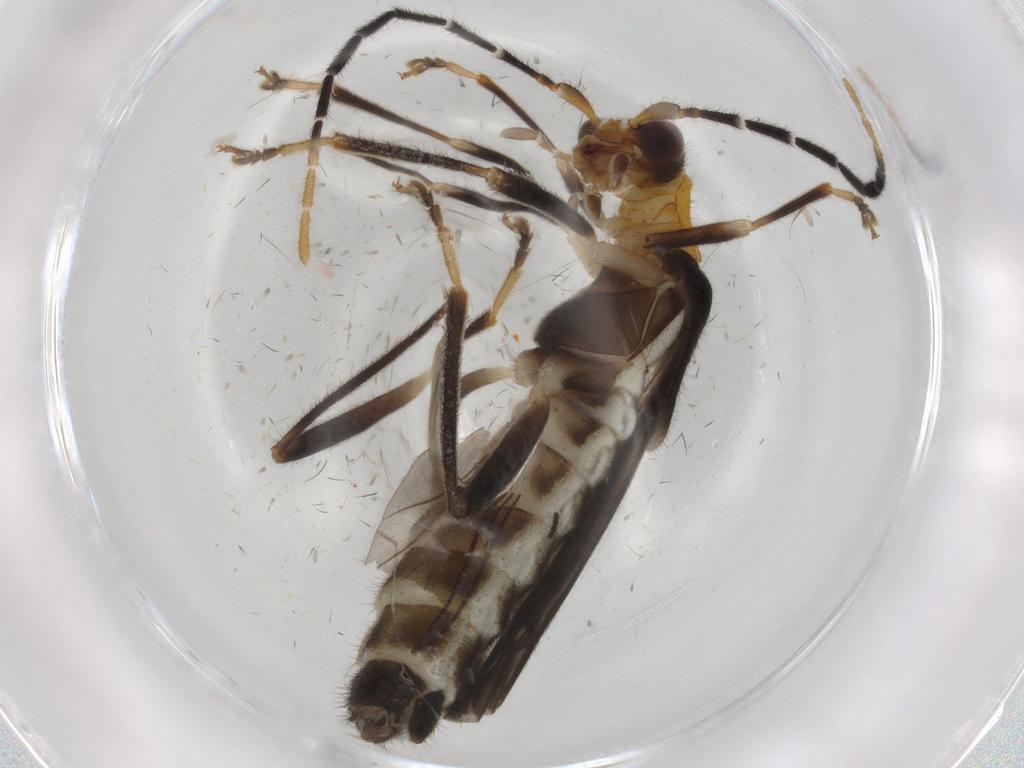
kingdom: Animalia
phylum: Arthropoda
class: Insecta
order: Coleoptera
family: Cantharidae
